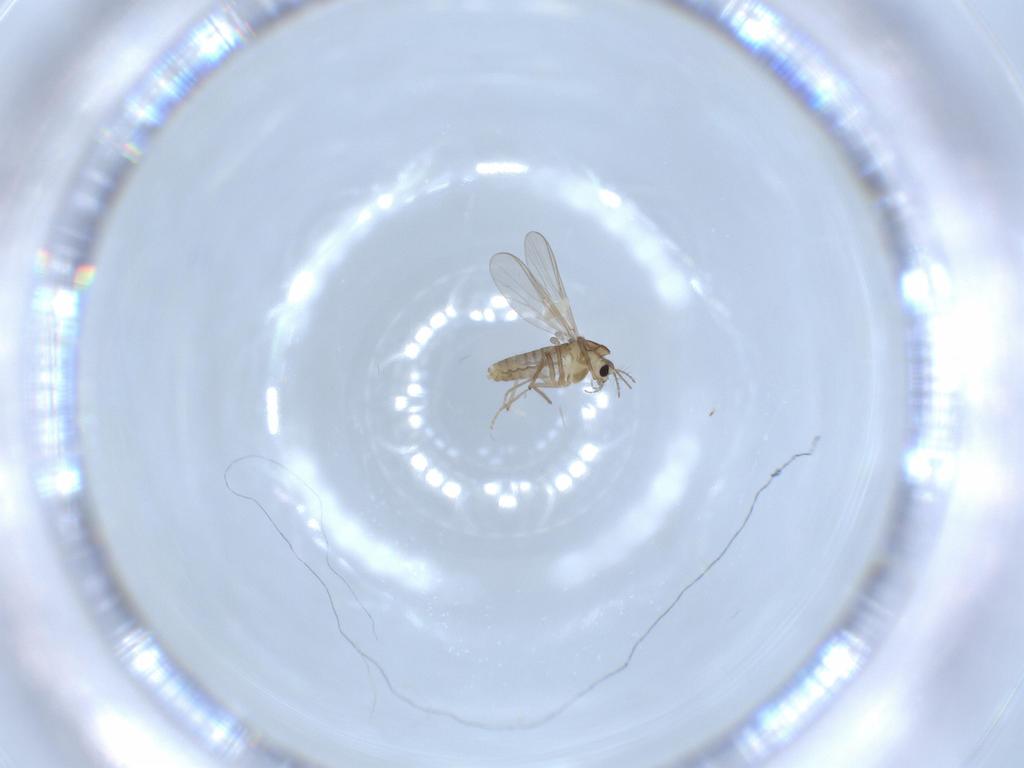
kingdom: Animalia
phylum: Arthropoda
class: Insecta
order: Diptera
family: Chironomidae
